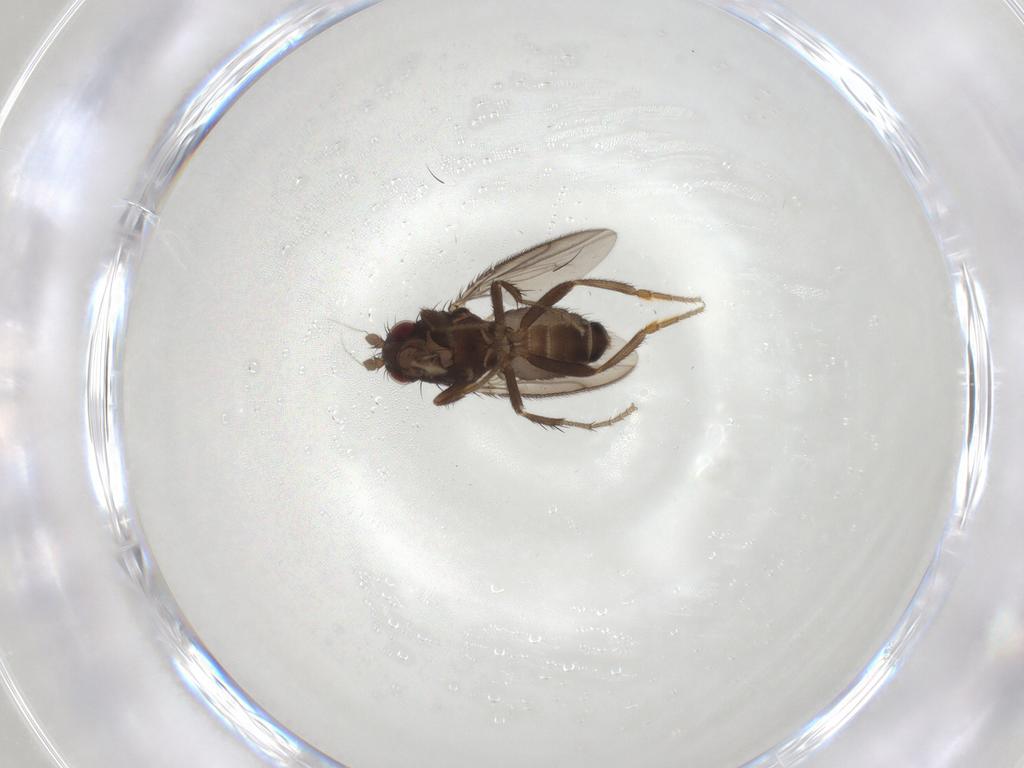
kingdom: Animalia
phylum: Arthropoda
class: Insecta
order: Diptera
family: Sphaeroceridae
